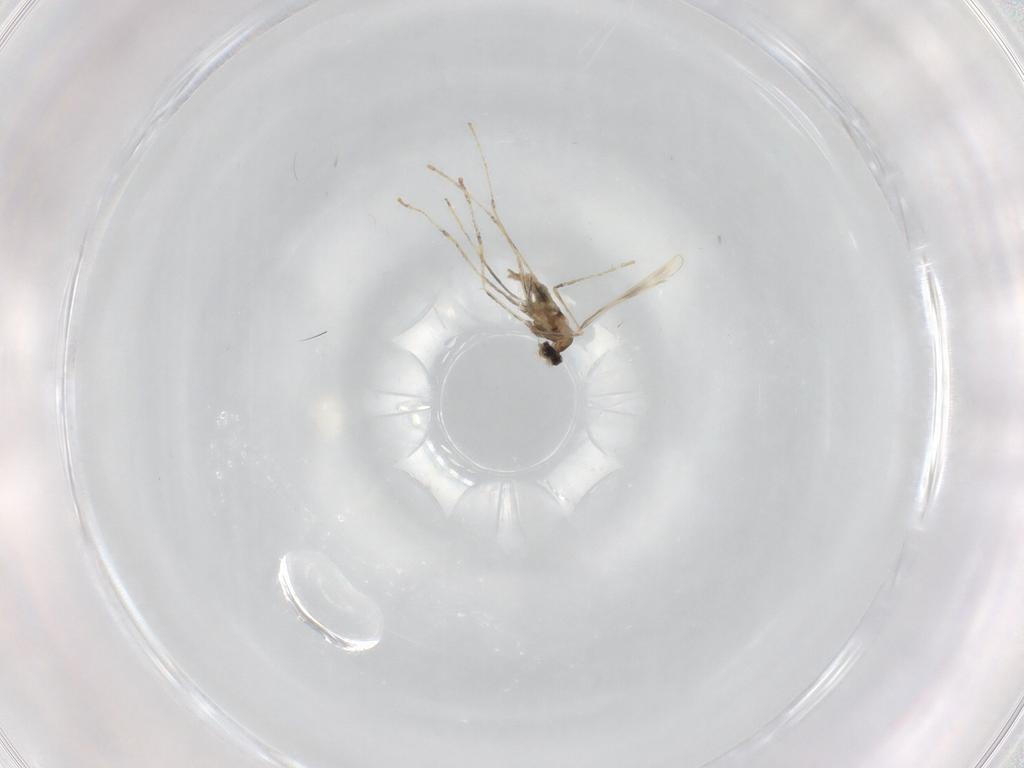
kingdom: Animalia
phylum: Arthropoda
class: Insecta
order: Diptera
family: Cecidomyiidae
